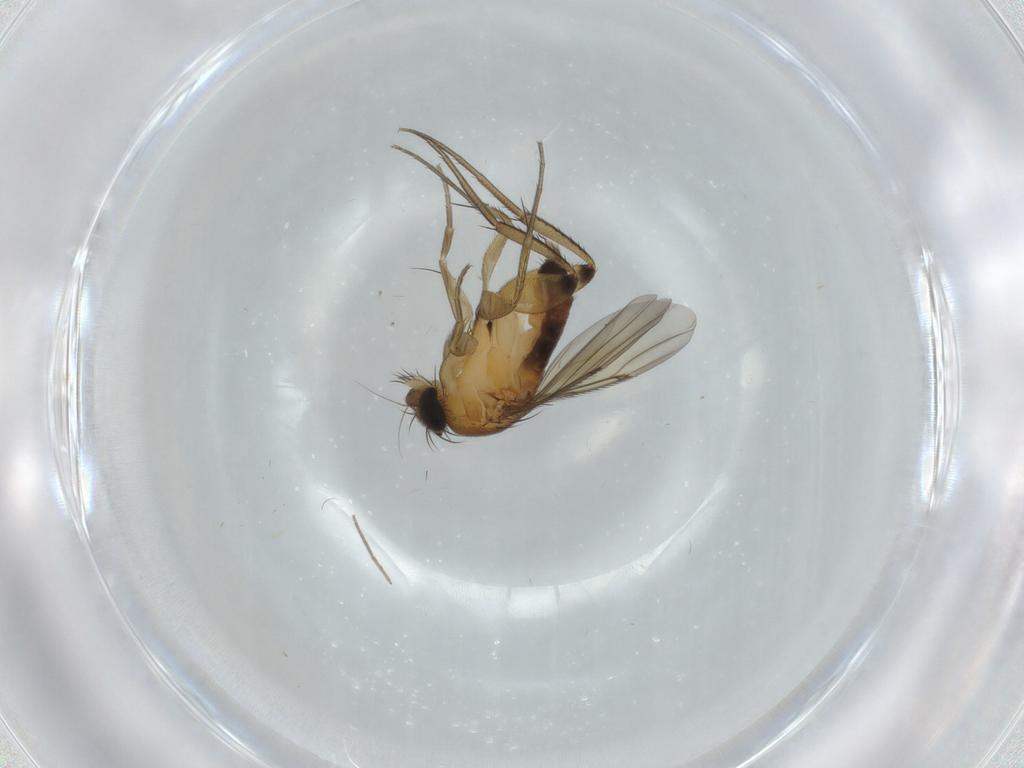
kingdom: Animalia
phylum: Arthropoda
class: Insecta
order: Diptera
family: Phoridae
